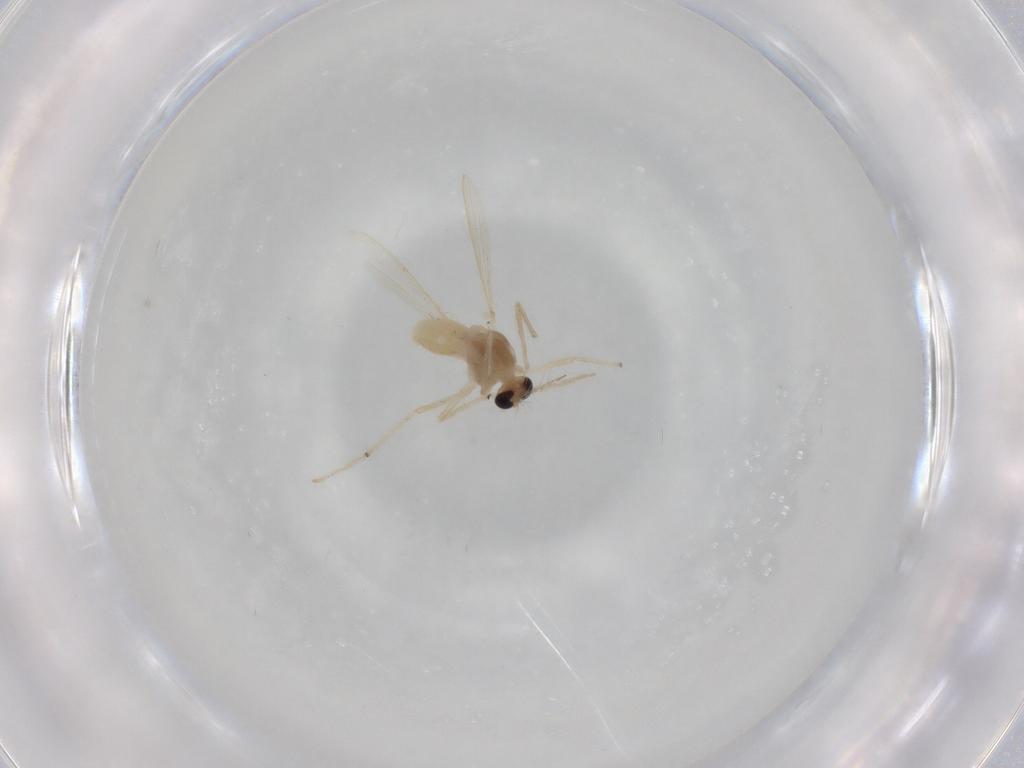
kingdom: Animalia
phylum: Arthropoda
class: Insecta
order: Diptera
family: Chironomidae
